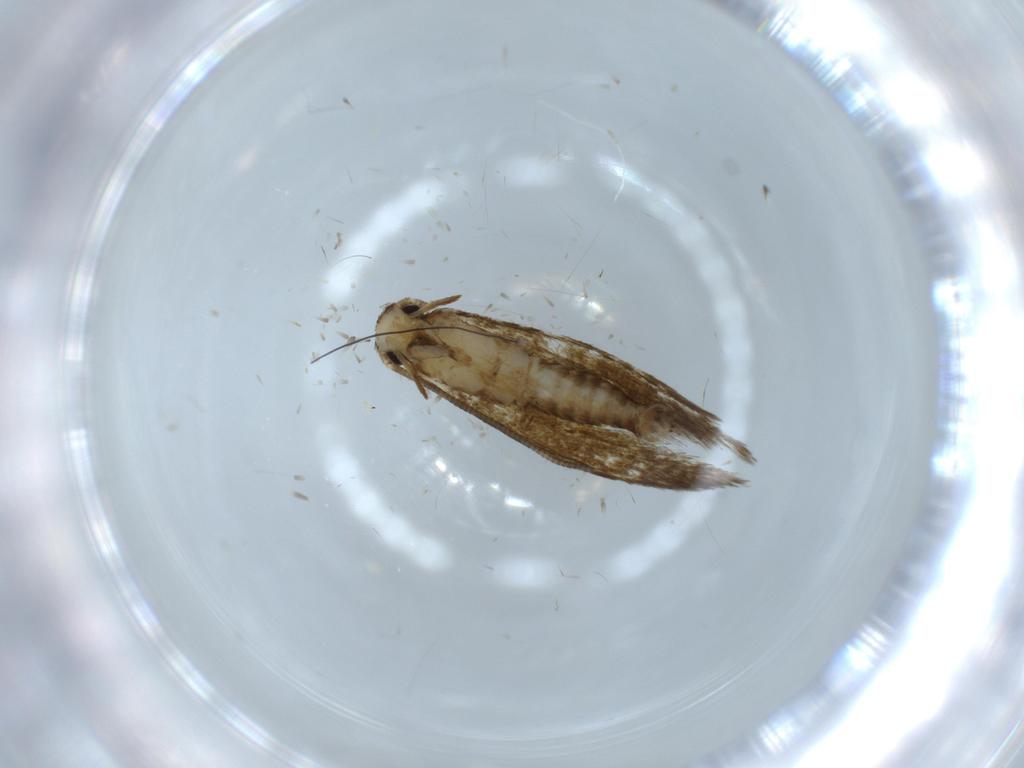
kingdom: Animalia
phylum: Arthropoda
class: Insecta
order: Lepidoptera
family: Tineidae
